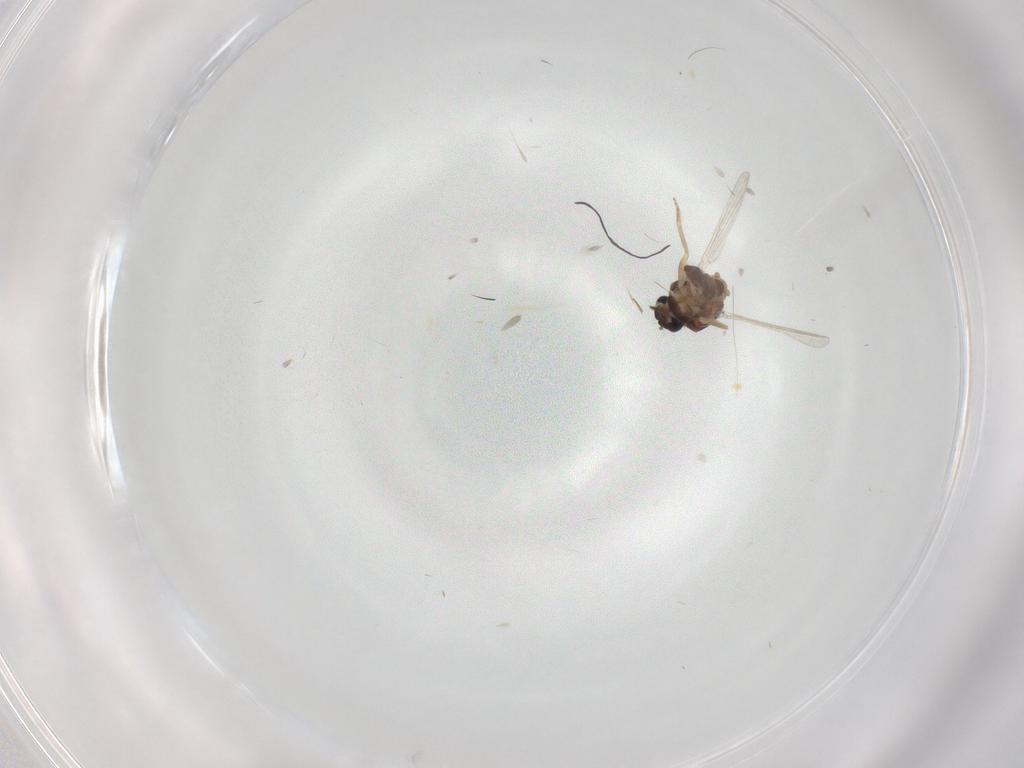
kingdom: Animalia
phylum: Arthropoda
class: Insecta
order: Diptera
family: Ceratopogonidae
